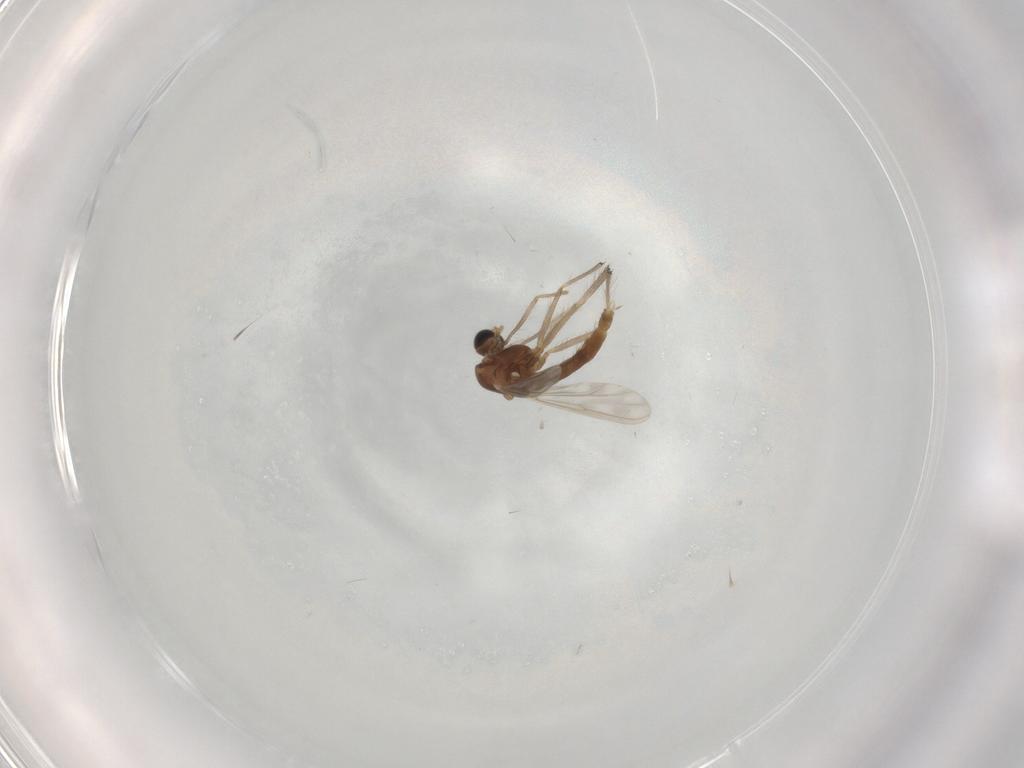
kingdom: Animalia
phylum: Arthropoda
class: Insecta
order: Diptera
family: Chironomidae
